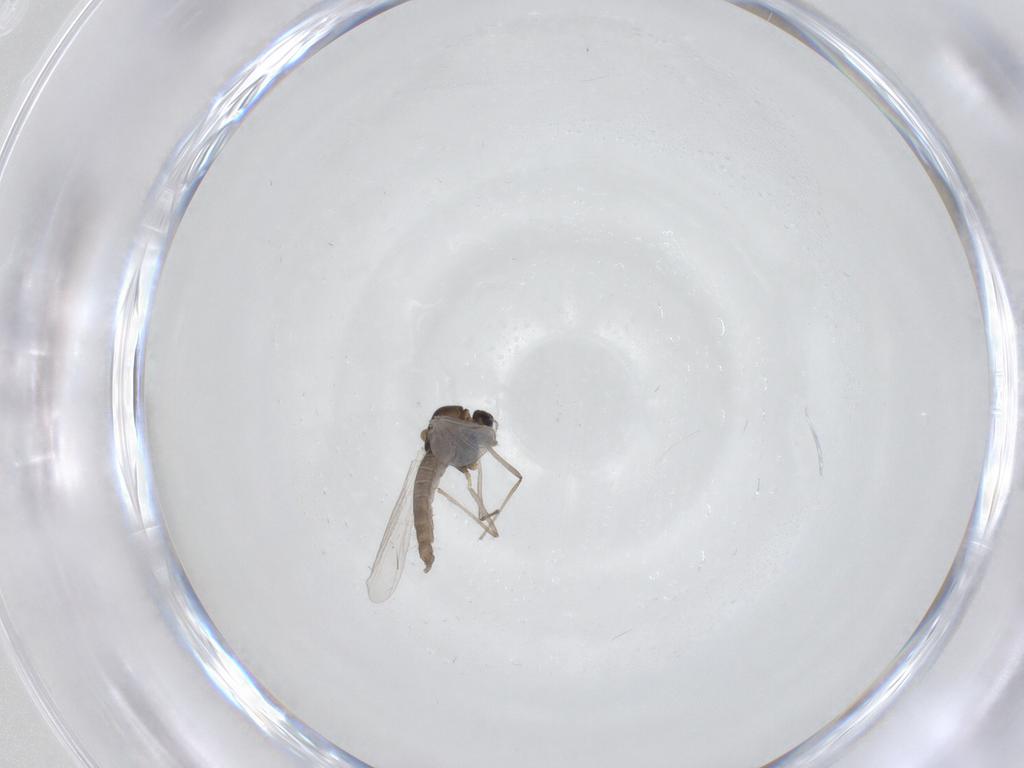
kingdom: Animalia
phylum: Arthropoda
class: Insecta
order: Diptera
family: Chironomidae
